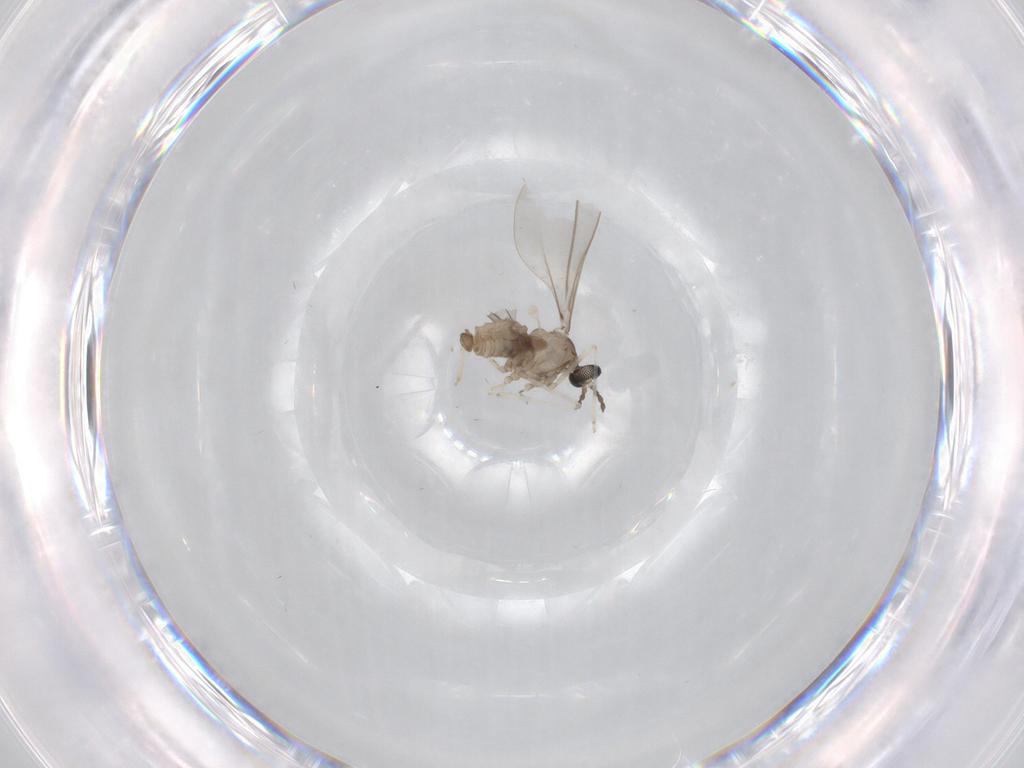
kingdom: Animalia
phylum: Arthropoda
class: Insecta
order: Diptera
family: Cecidomyiidae
